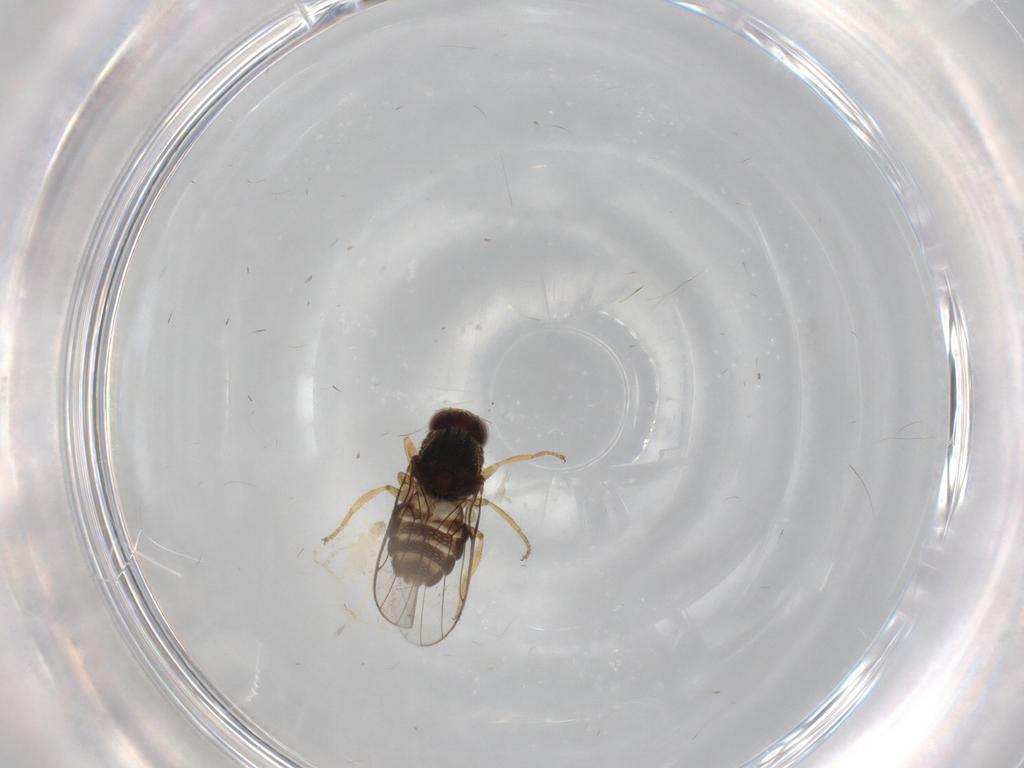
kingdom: Animalia
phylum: Arthropoda
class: Insecta
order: Diptera
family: Chloropidae
